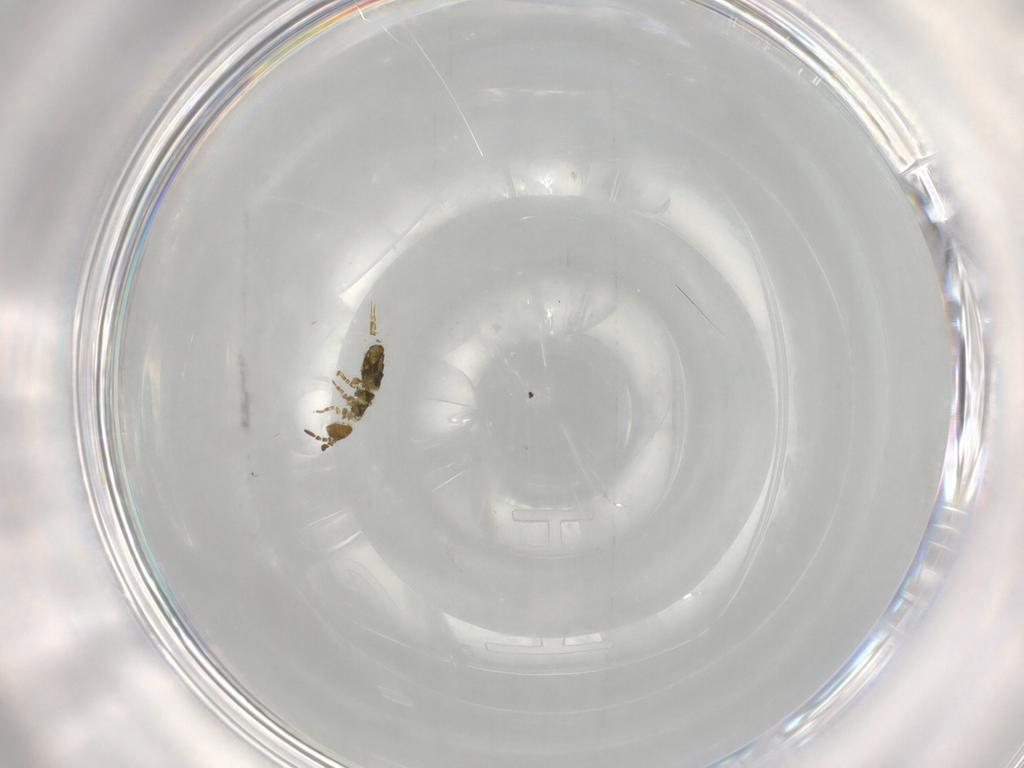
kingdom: Animalia
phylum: Arthropoda
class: Collembola
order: Entomobryomorpha
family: Isotomidae
